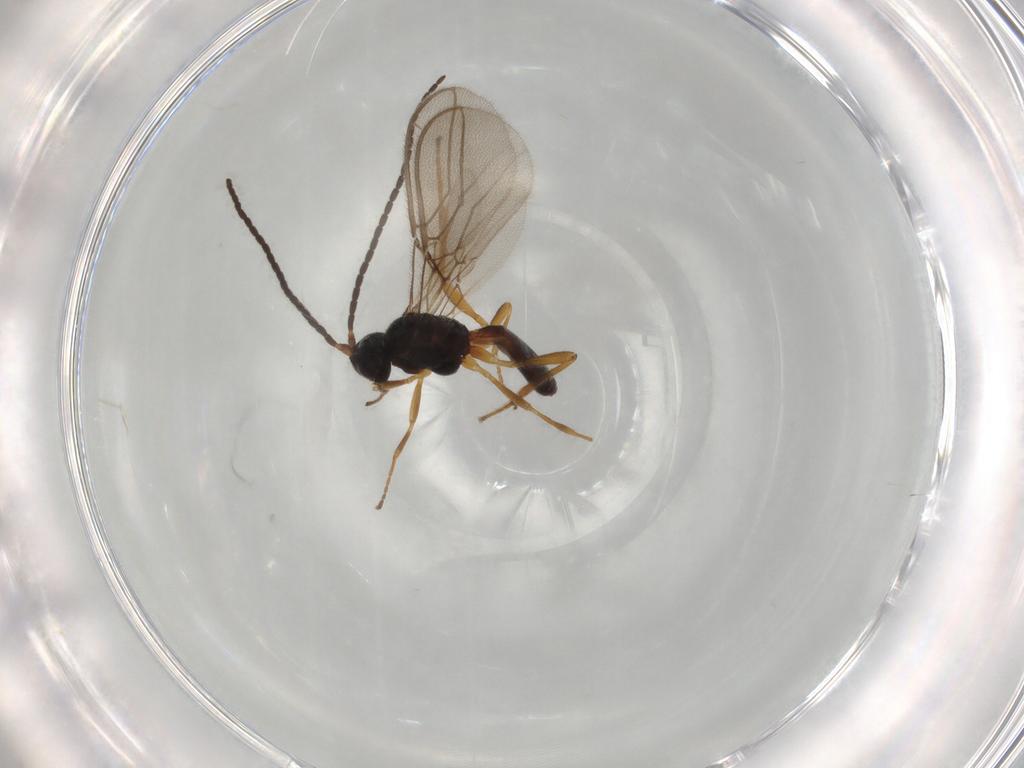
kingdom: Animalia
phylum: Arthropoda
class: Insecta
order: Hymenoptera
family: Braconidae
